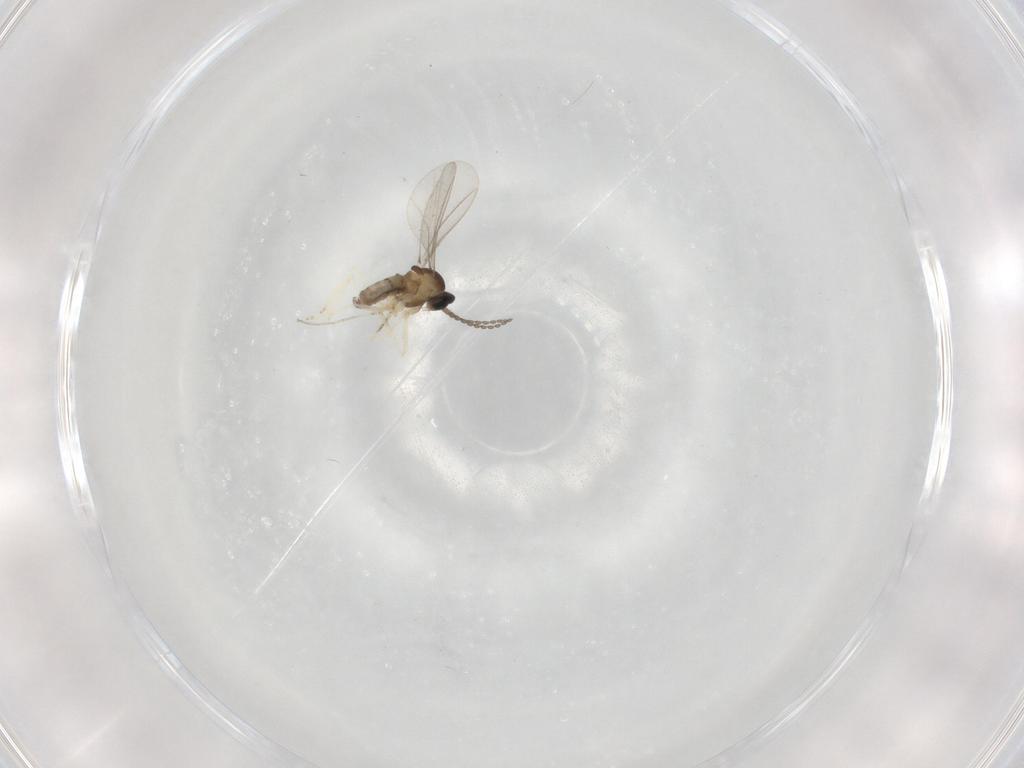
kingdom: Animalia
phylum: Arthropoda
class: Insecta
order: Diptera
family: Cecidomyiidae
